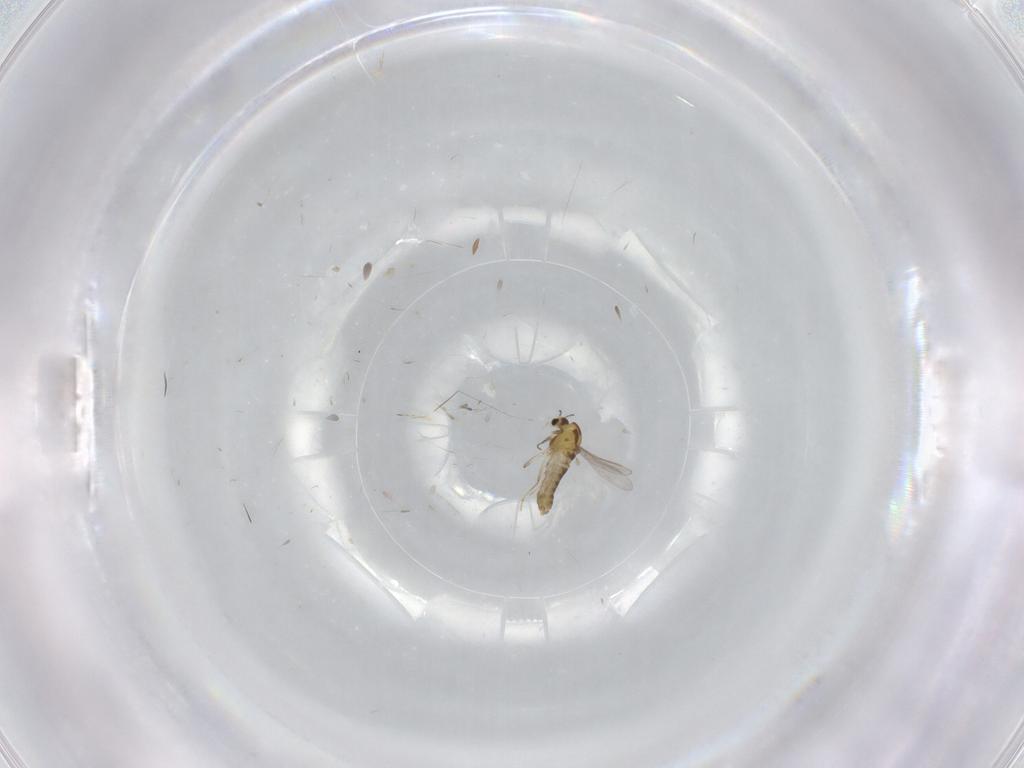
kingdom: Animalia
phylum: Arthropoda
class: Insecta
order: Diptera
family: Chironomidae
